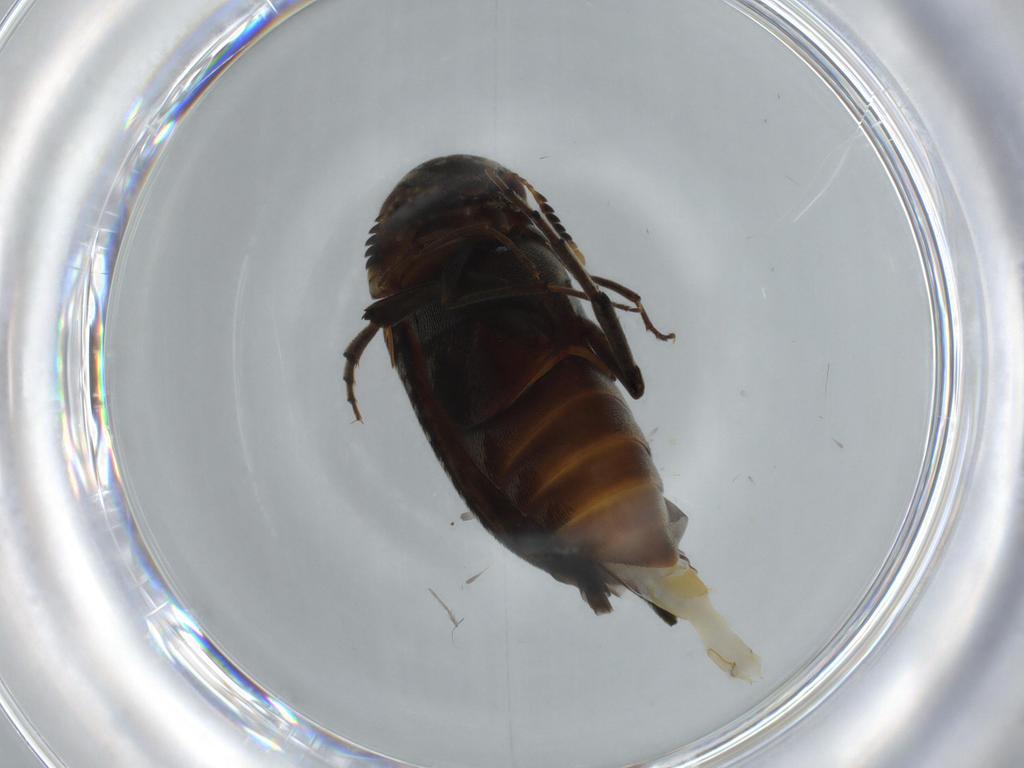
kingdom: Animalia
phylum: Arthropoda
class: Insecta
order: Coleoptera
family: Mordellidae
